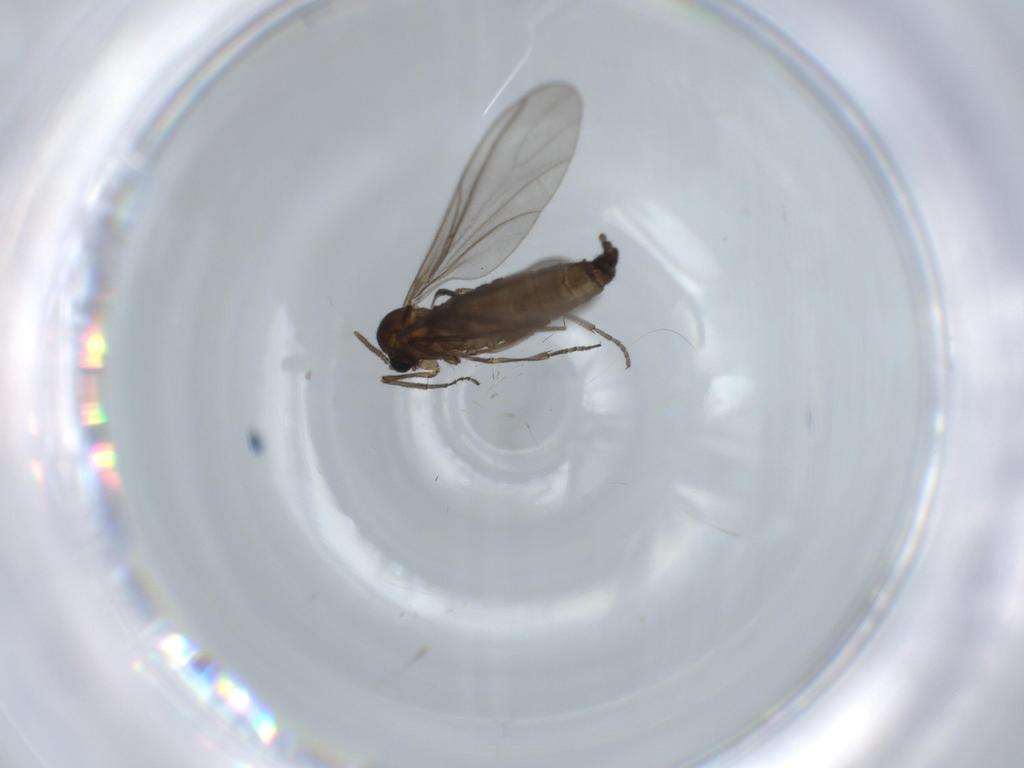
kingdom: Animalia
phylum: Arthropoda
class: Insecta
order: Diptera
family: Sciaridae
